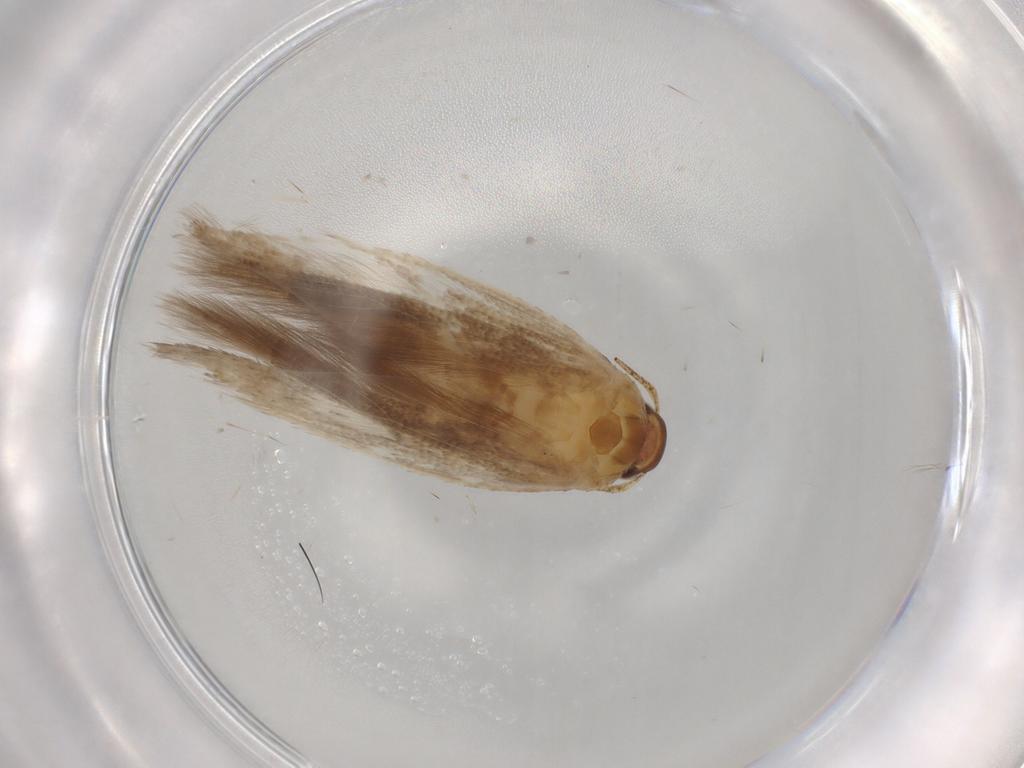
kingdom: Animalia
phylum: Arthropoda
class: Insecta
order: Lepidoptera
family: Gelechiidae
